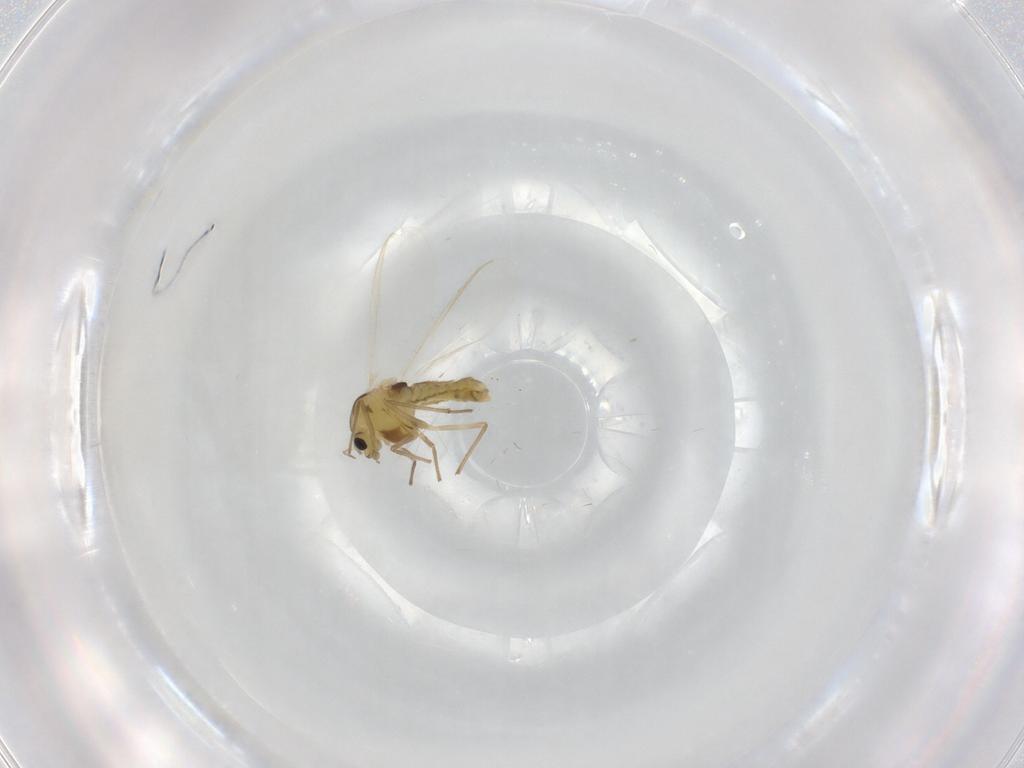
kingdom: Animalia
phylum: Arthropoda
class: Insecta
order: Diptera
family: Chironomidae
